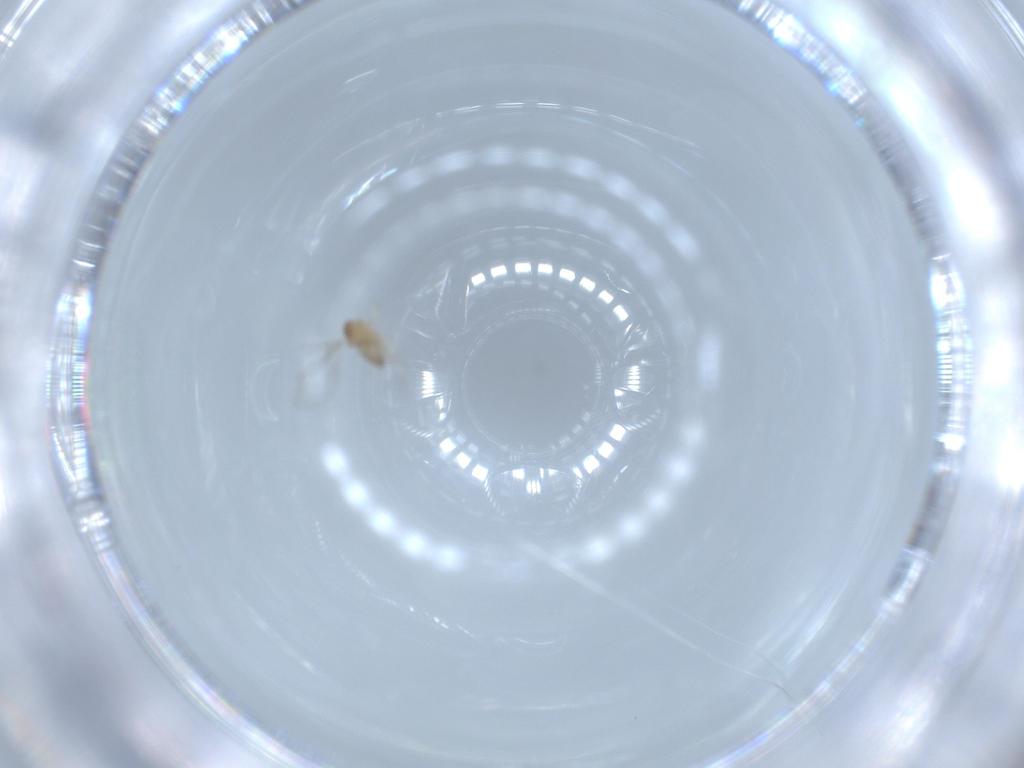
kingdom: Animalia
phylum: Arthropoda
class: Insecta
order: Diptera
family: Cecidomyiidae
